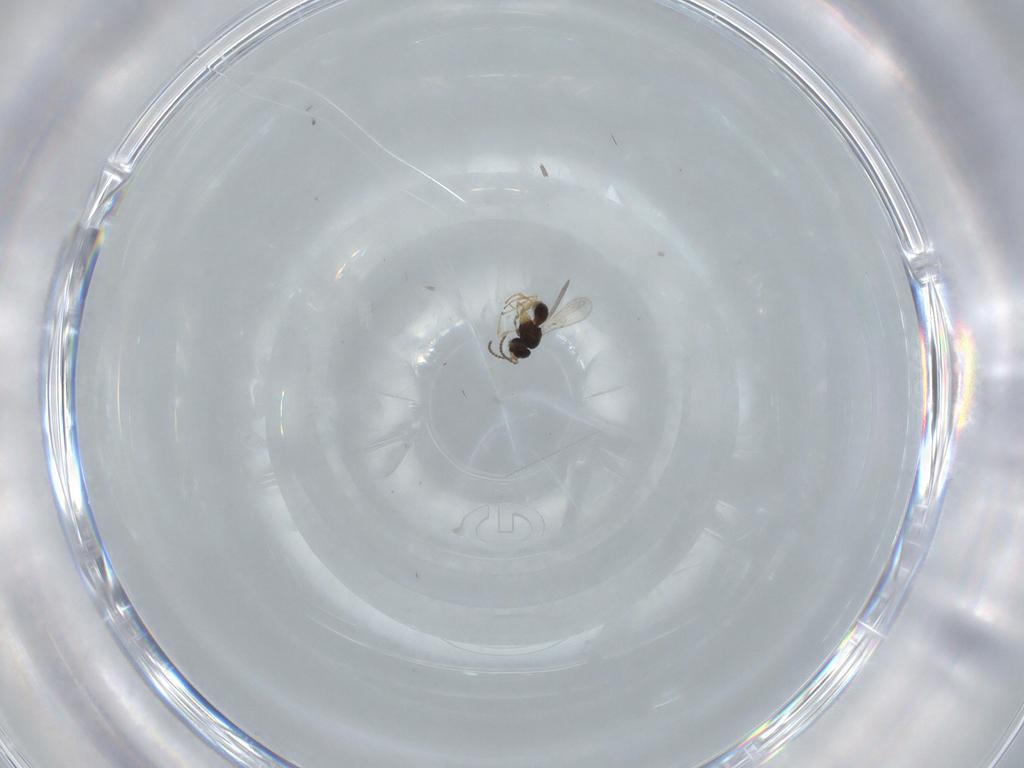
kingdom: Animalia
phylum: Arthropoda
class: Insecta
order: Hymenoptera
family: Scelionidae
